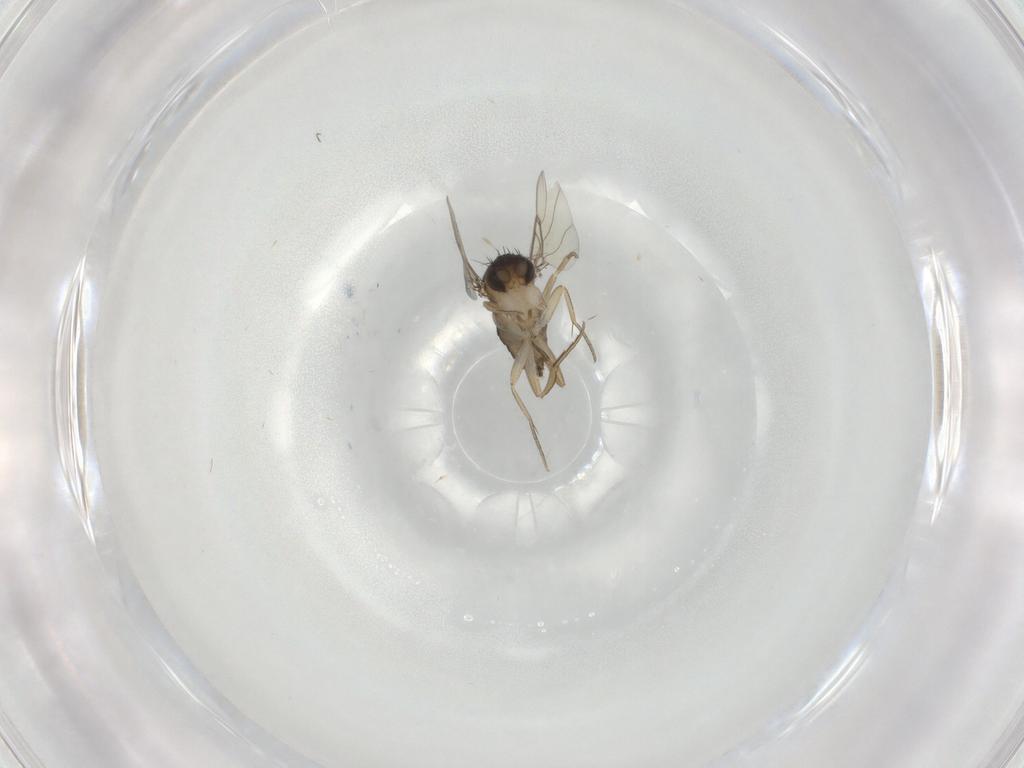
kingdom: Animalia
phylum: Arthropoda
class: Insecta
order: Diptera
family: Phoridae
